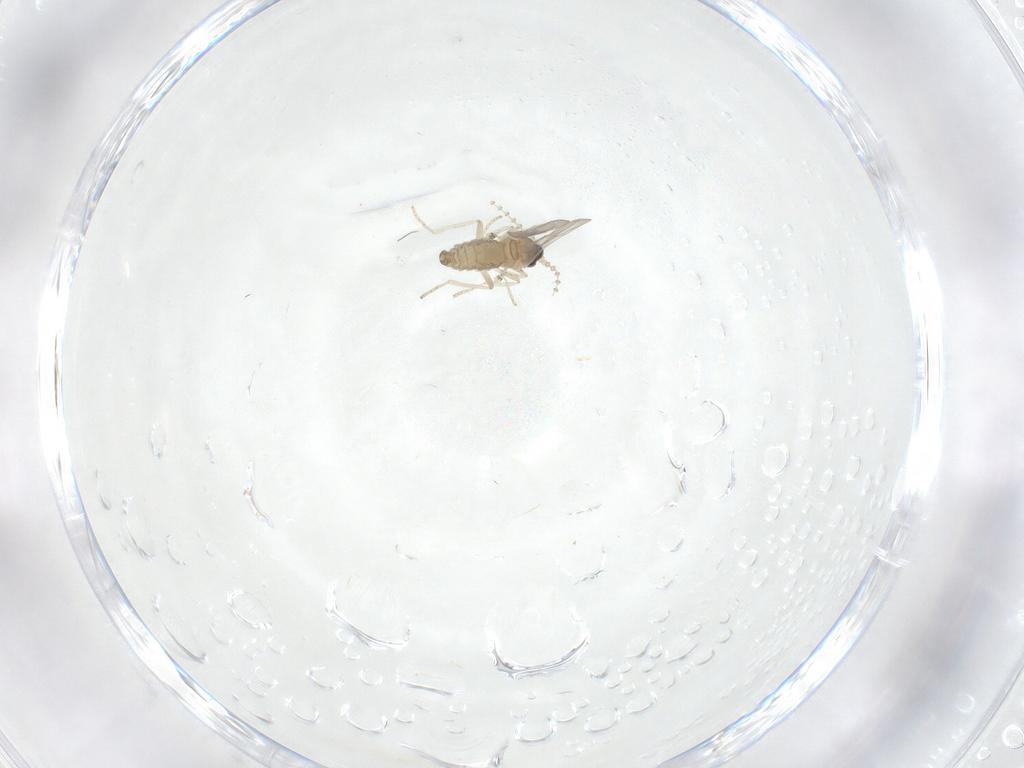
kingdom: Animalia
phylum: Arthropoda
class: Insecta
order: Diptera
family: Cecidomyiidae
